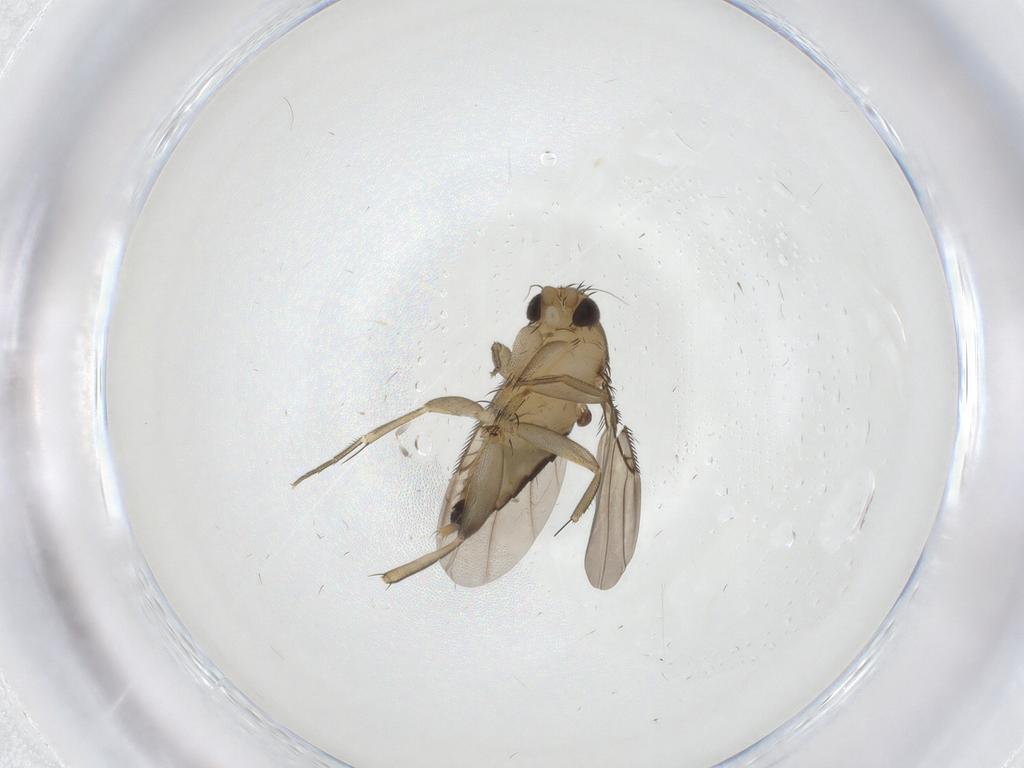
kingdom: Animalia
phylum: Arthropoda
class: Insecta
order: Diptera
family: Phoridae
